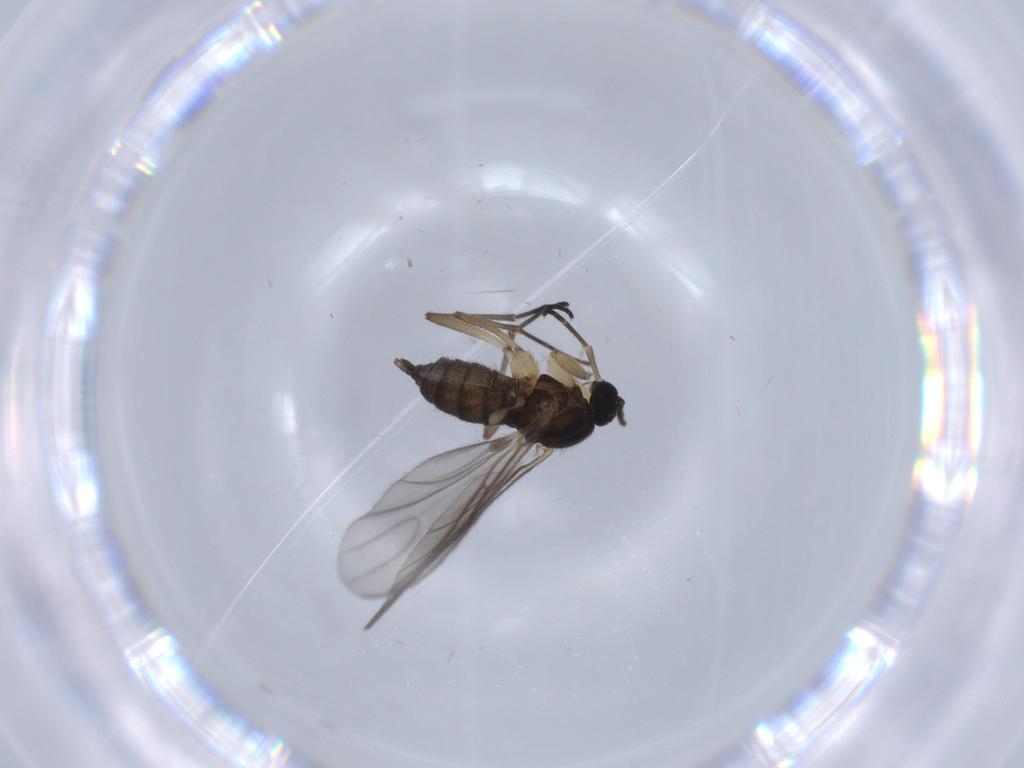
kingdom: Animalia
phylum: Arthropoda
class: Insecta
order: Diptera
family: Sciaridae
